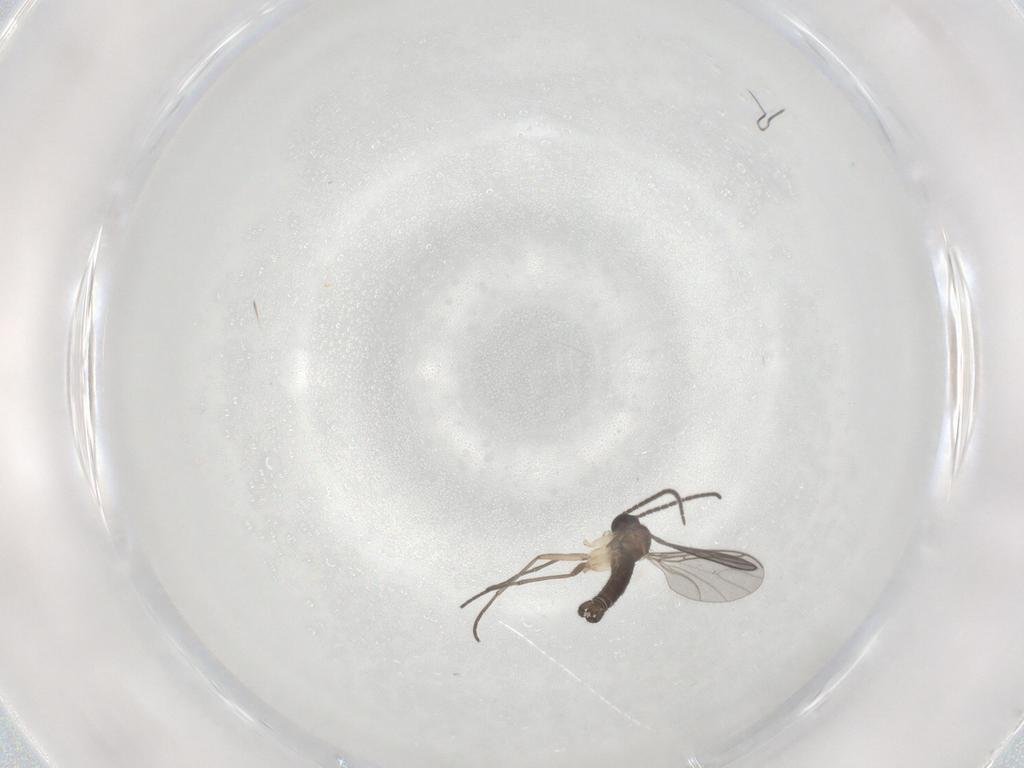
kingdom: Animalia
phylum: Arthropoda
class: Insecta
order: Diptera
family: Sciaridae
